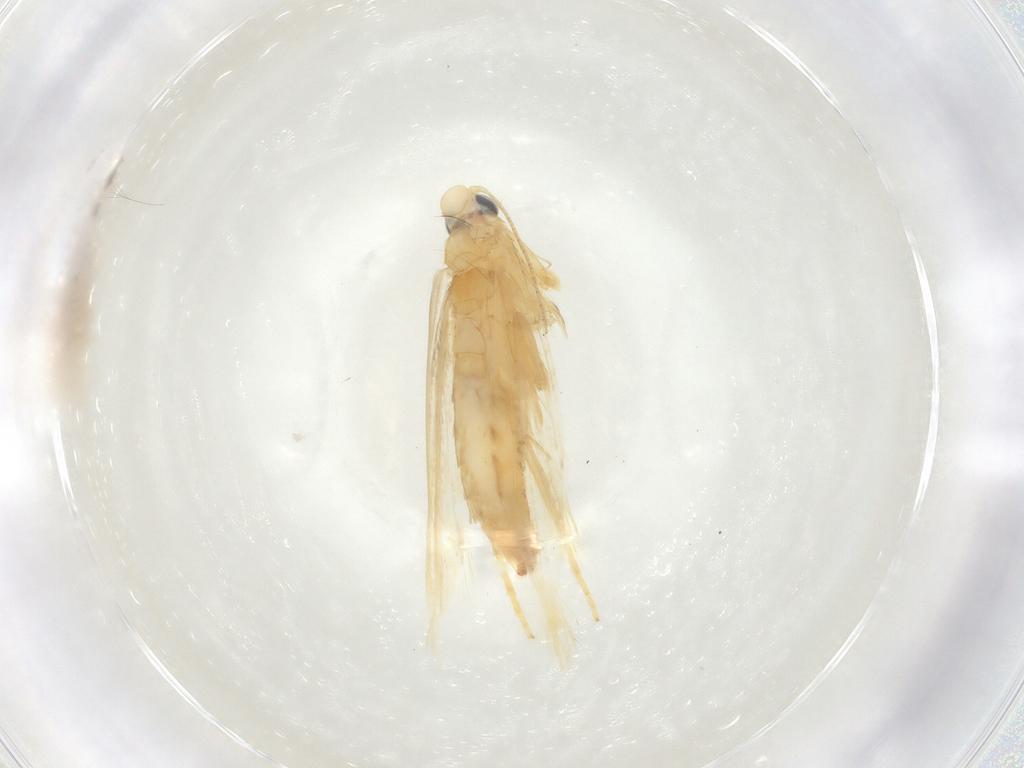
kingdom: Animalia
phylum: Arthropoda
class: Insecta
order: Lepidoptera
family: Tischeriidae
